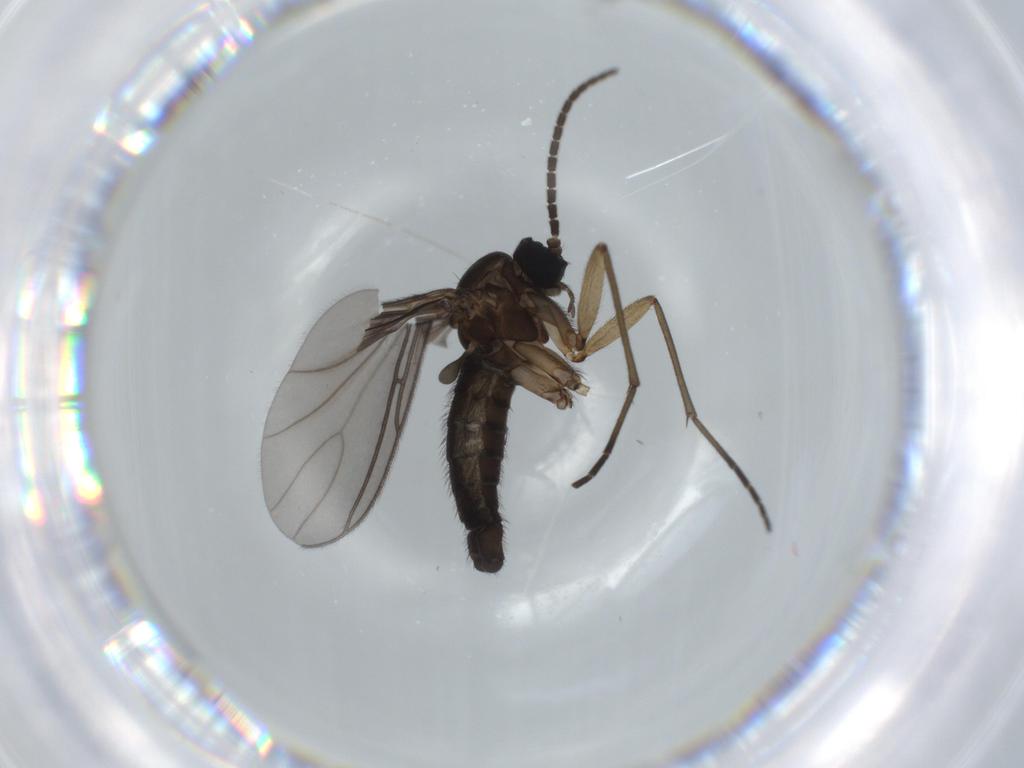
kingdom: Animalia
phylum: Arthropoda
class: Insecta
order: Diptera
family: Sciaridae
